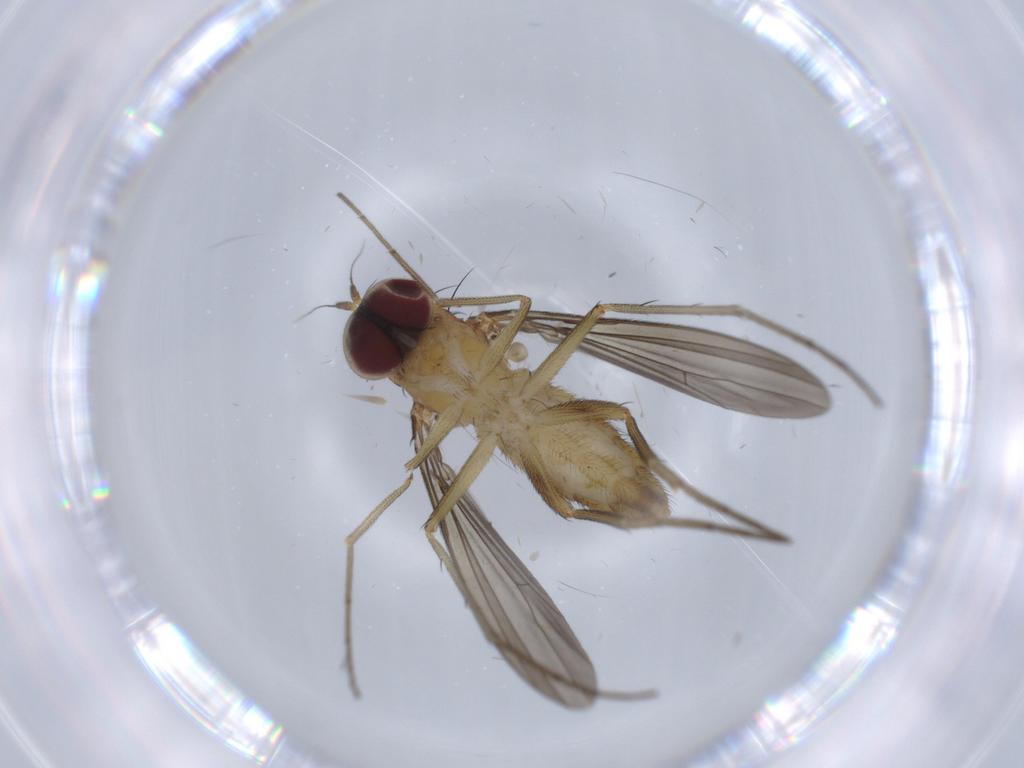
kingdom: Animalia
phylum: Arthropoda
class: Insecta
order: Diptera
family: Dolichopodidae
